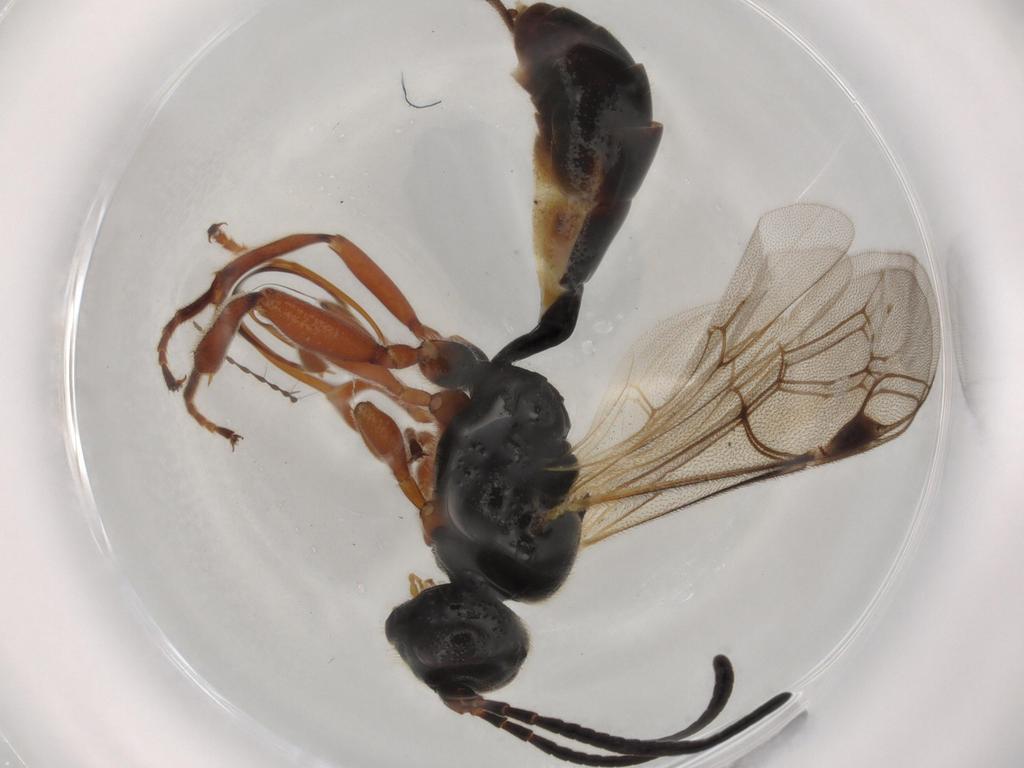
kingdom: Animalia
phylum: Arthropoda
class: Insecta
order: Hymenoptera
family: Ichneumonidae
